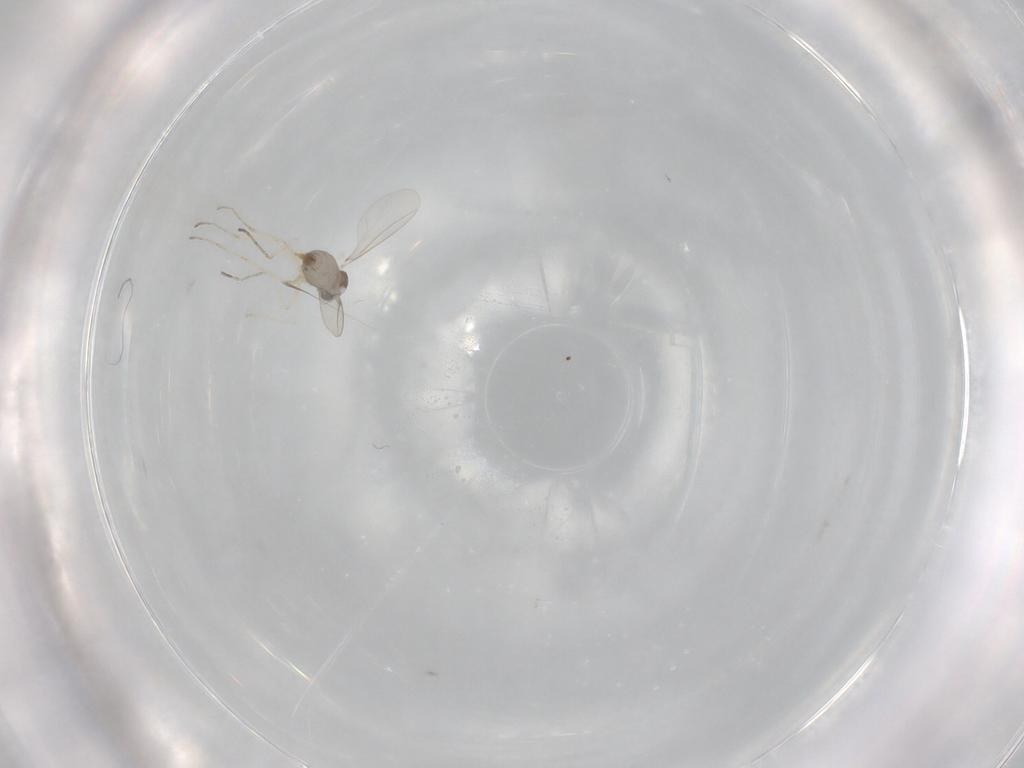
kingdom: Animalia
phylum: Arthropoda
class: Insecta
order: Diptera
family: Cecidomyiidae
